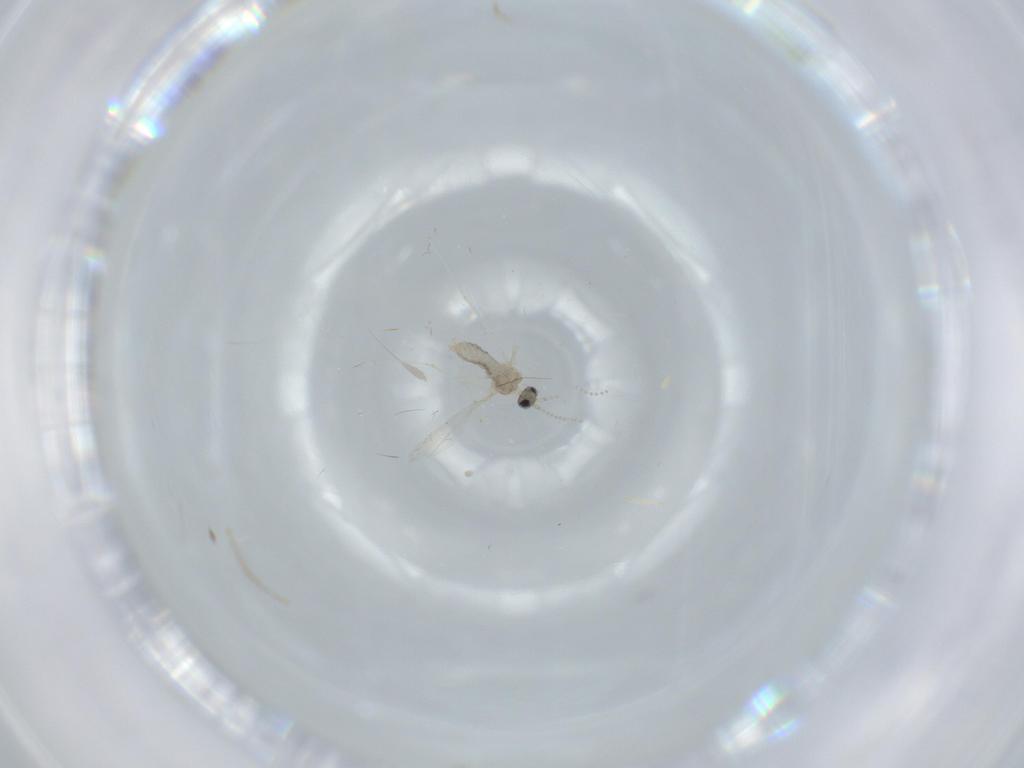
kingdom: Animalia
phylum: Arthropoda
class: Insecta
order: Diptera
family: Cecidomyiidae
